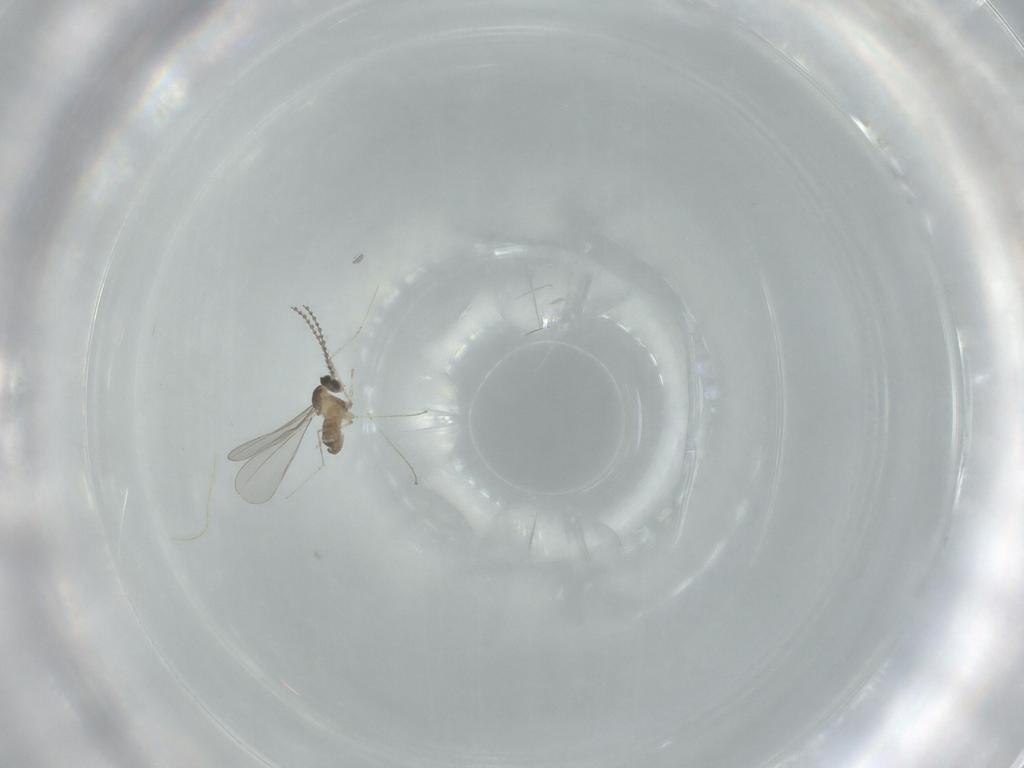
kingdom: Animalia
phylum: Arthropoda
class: Insecta
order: Diptera
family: Cecidomyiidae
